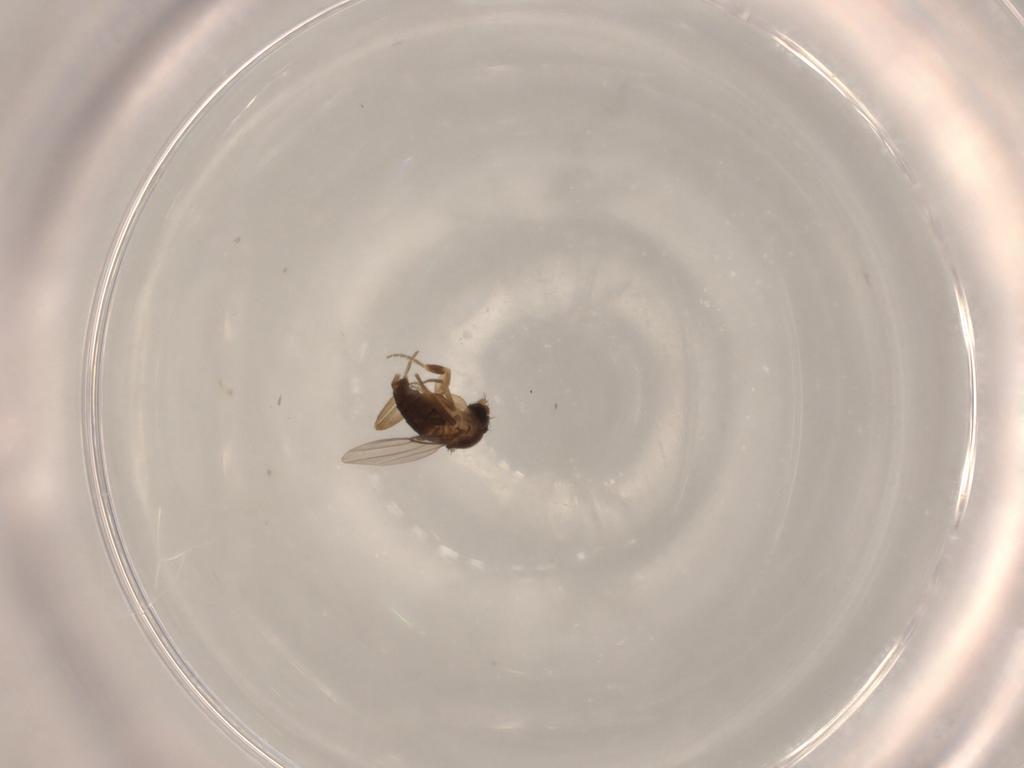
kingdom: Animalia
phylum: Arthropoda
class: Insecta
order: Diptera
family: Phoridae
